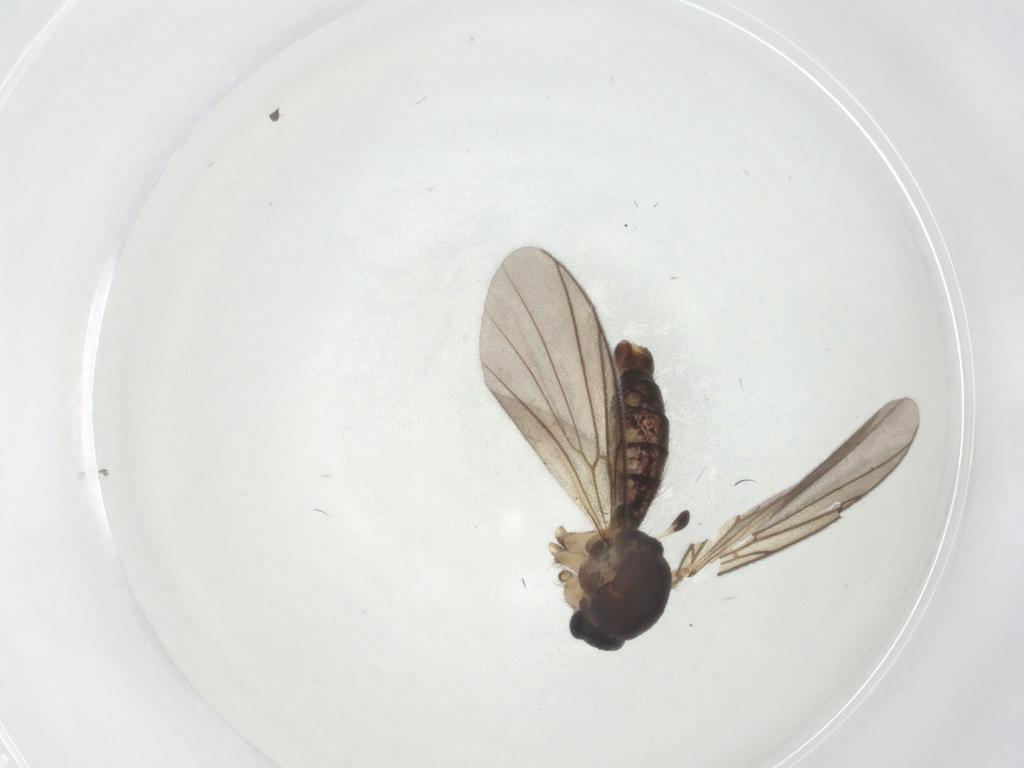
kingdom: Animalia
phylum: Arthropoda
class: Insecta
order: Diptera
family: Mycetophilidae
